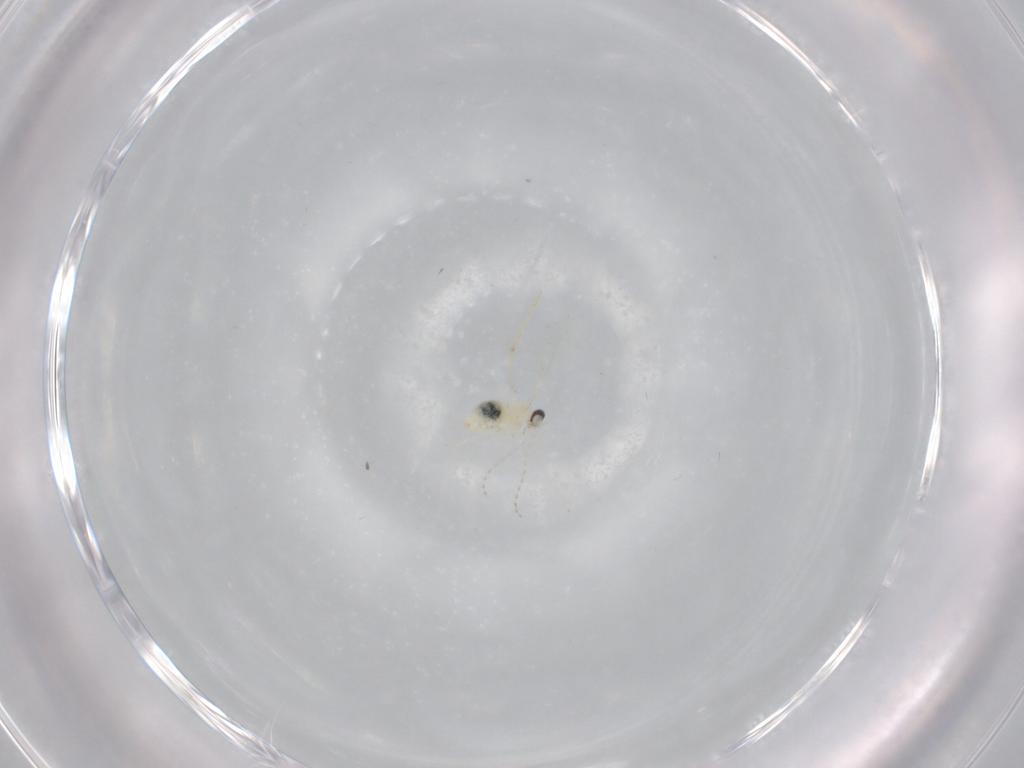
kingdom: Animalia
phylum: Arthropoda
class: Insecta
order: Diptera
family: Cecidomyiidae
